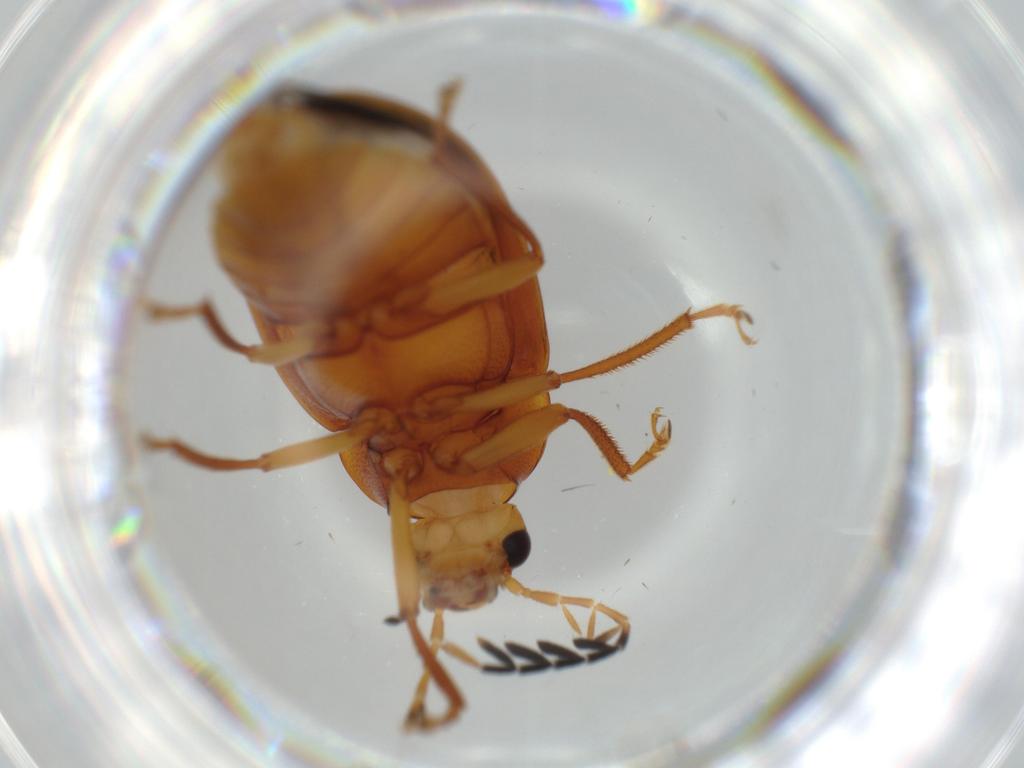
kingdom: Animalia
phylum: Arthropoda
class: Insecta
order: Coleoptera
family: Ptilodactylidae
